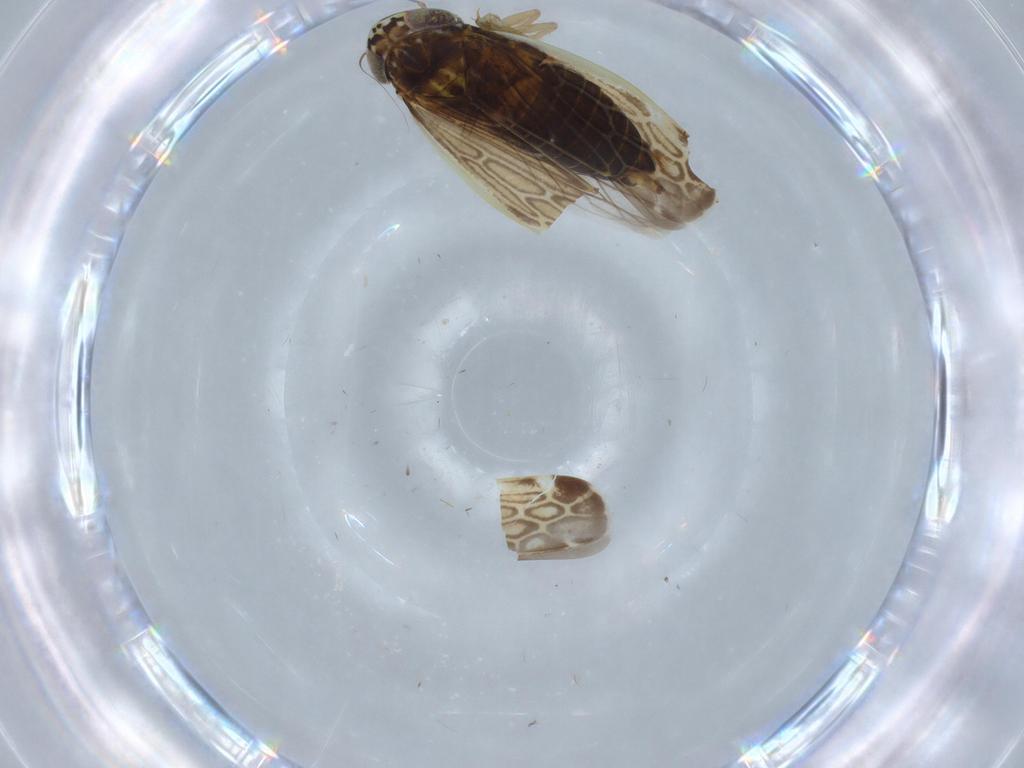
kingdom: Animalia
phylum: Arthropoda
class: Insecta
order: Hemiptera
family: Cicadellidae
